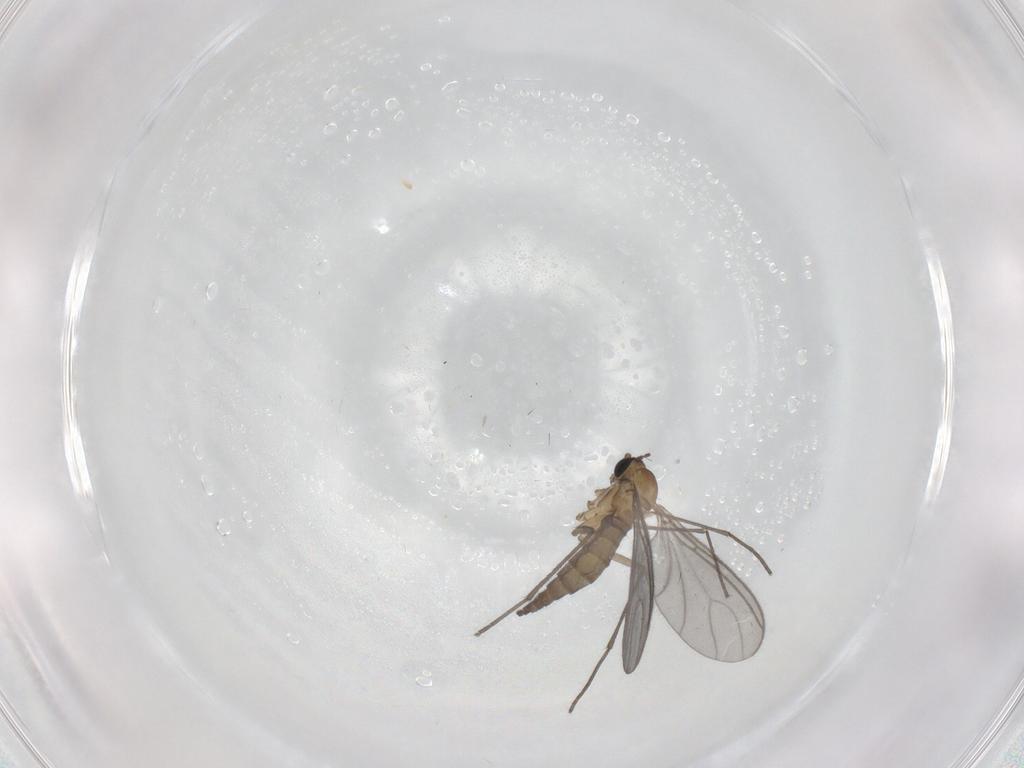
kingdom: Animalia
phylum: Arthropoda
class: Insecta
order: Diptera
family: Sciaridae
